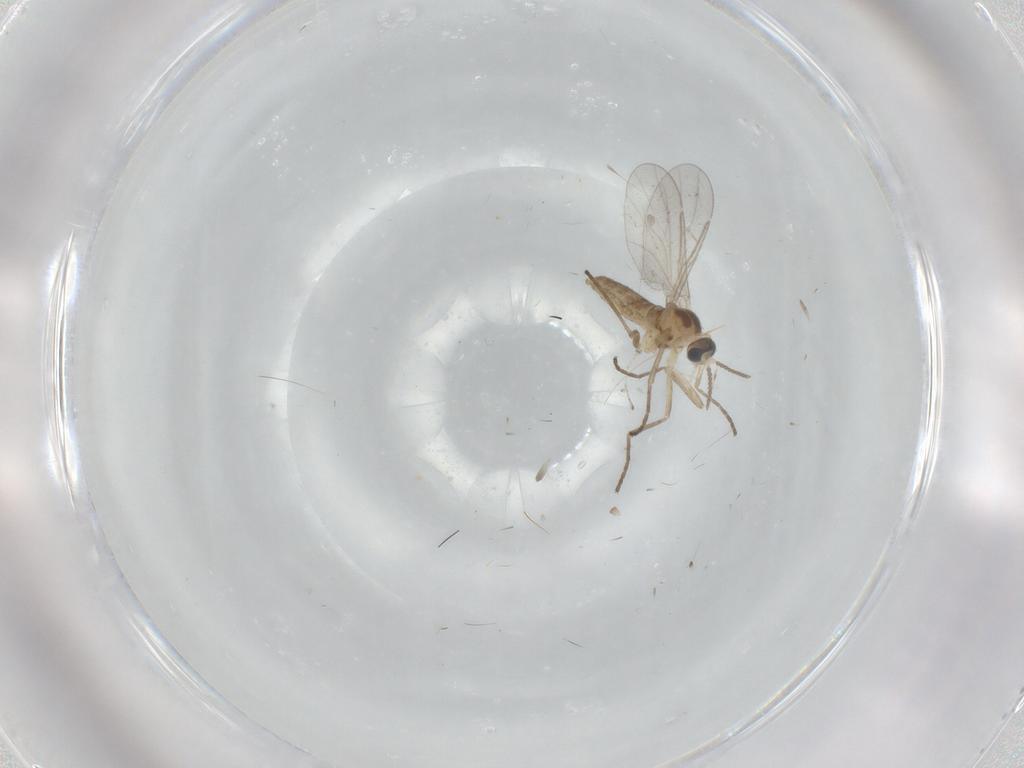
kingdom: Animalia
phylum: Arthropoda
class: Insecta
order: Diptera
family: Cecidomyiidae
